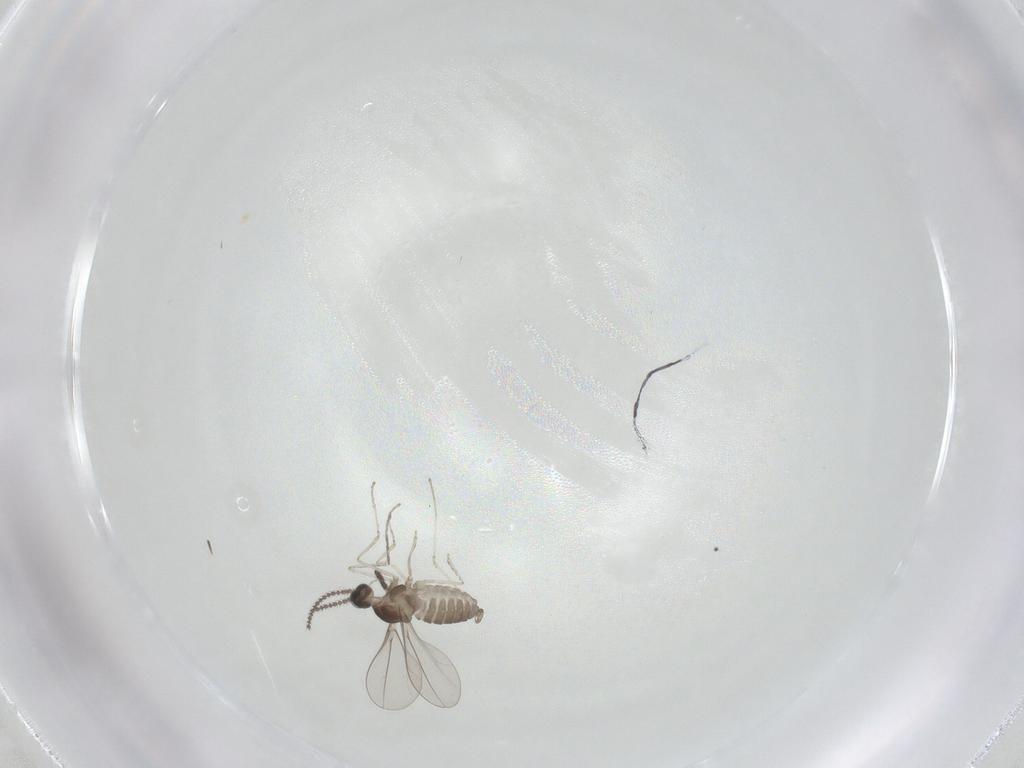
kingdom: Animalia
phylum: Arthropoda
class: Insecta
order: Diptera
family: Cecidomyiidae
